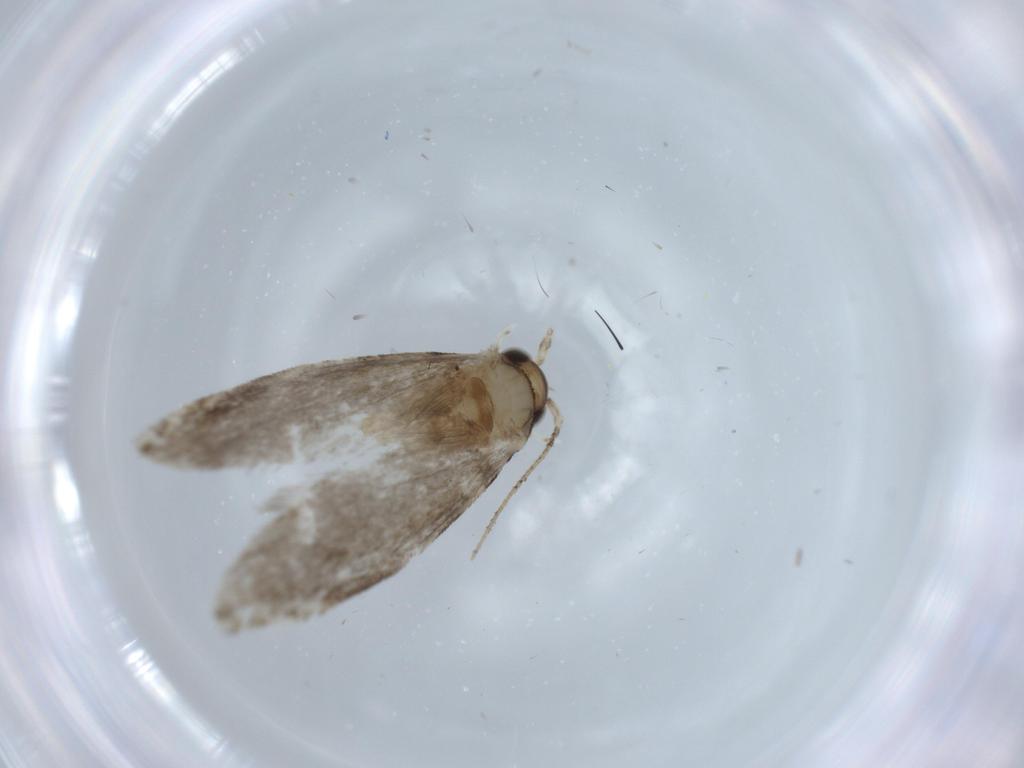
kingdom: Animalia
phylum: Arthropoda
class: Insecta
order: Lepidoptera
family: Tineidae
